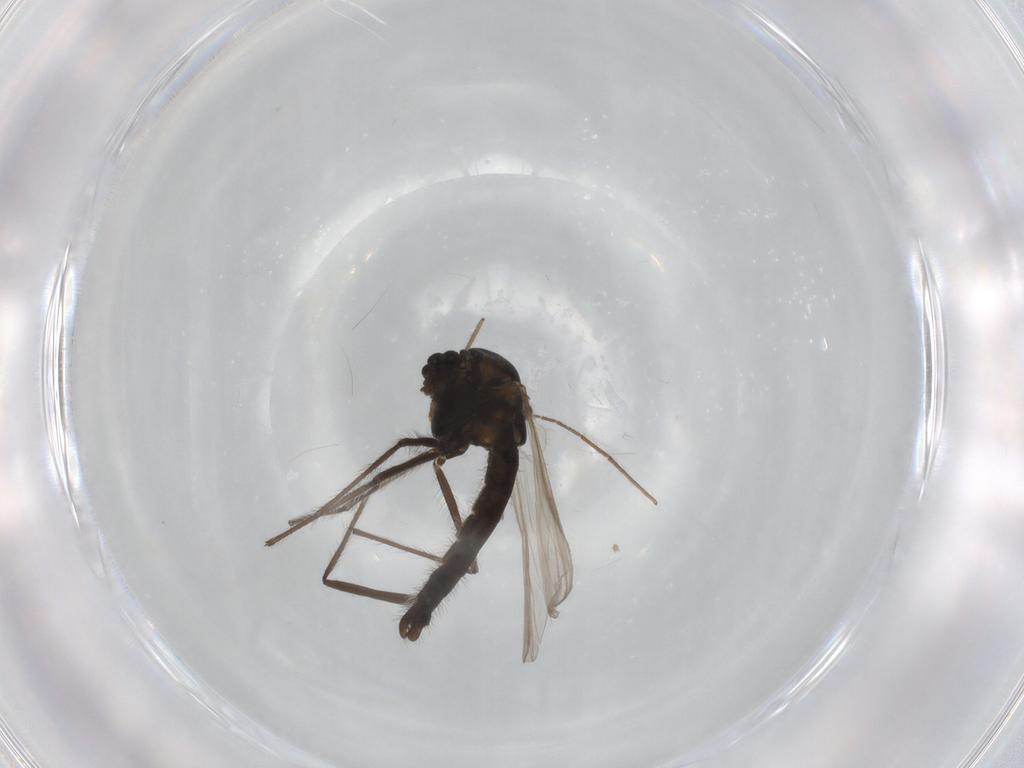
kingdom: Animalia
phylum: Arthropoda
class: Insecta
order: Diptera
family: Chironomidae
